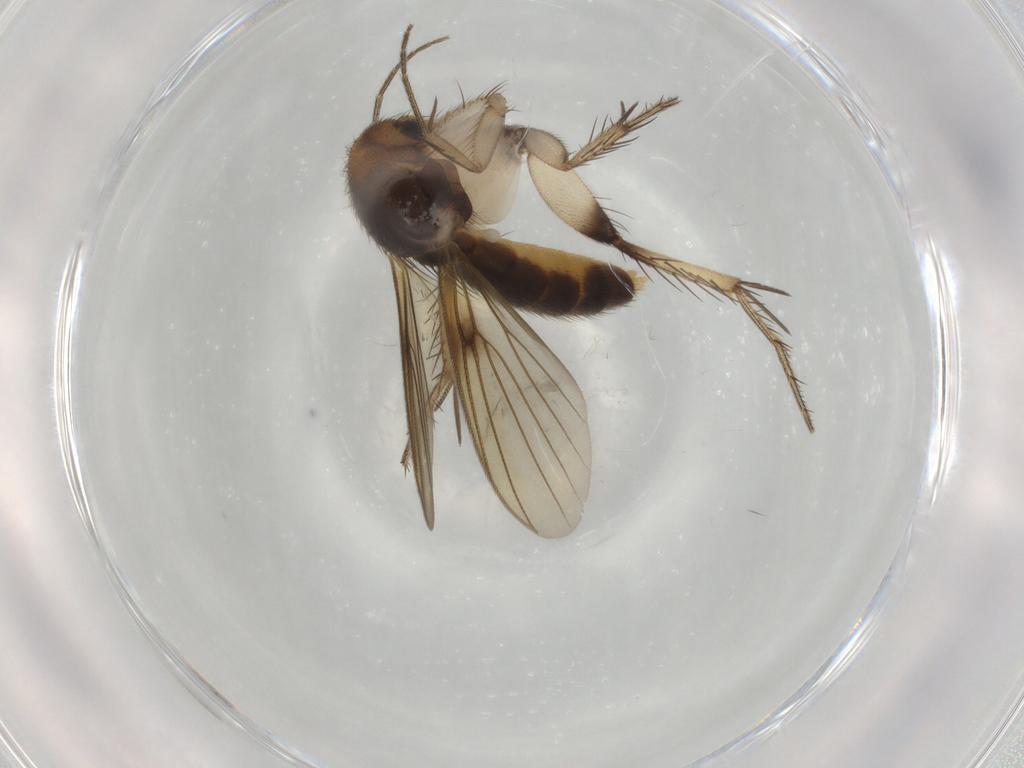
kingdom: Animalia
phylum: Arthropoda
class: Insecta
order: Diptera
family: Mycetophilidae
